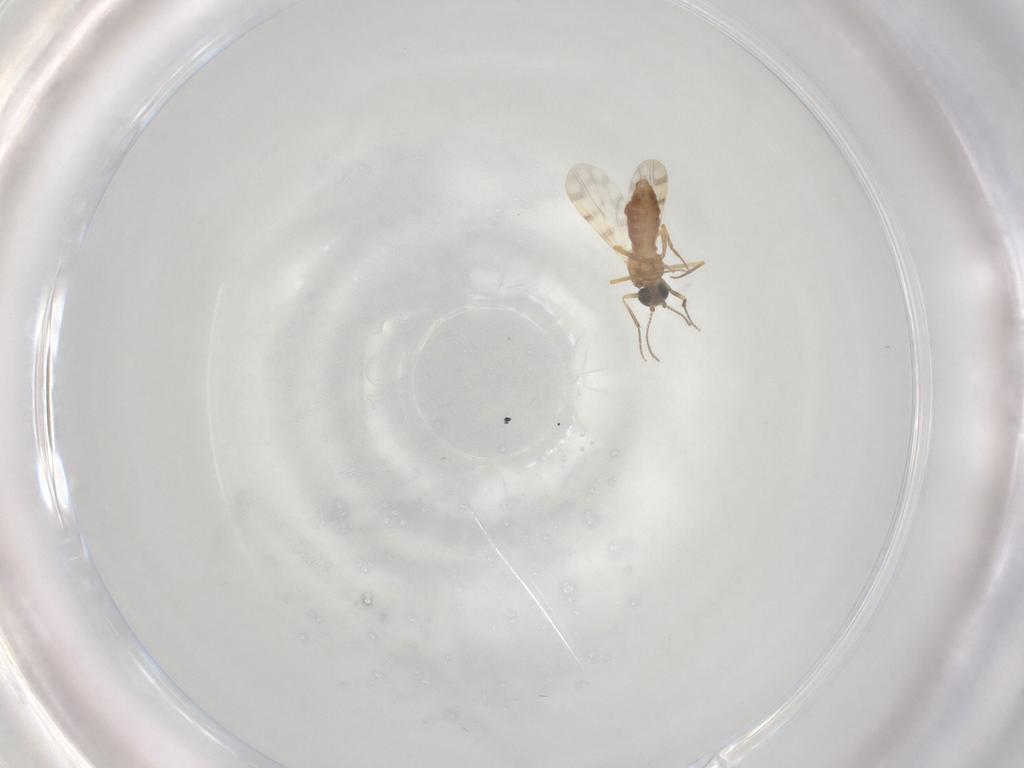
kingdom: Animalia
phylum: Arthropoda
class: Insecta
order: Diptera
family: Ceratopogonidae
